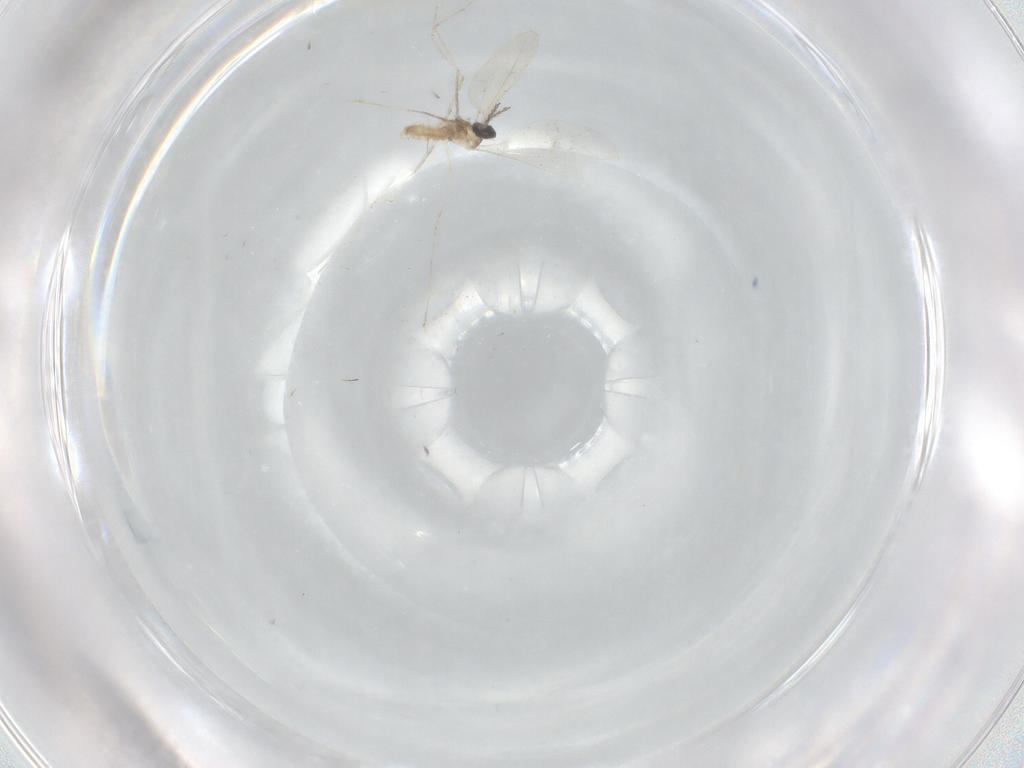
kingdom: Animalia
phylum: Arthropoda
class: Insecta
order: Diptera
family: Cecidomyiidae
